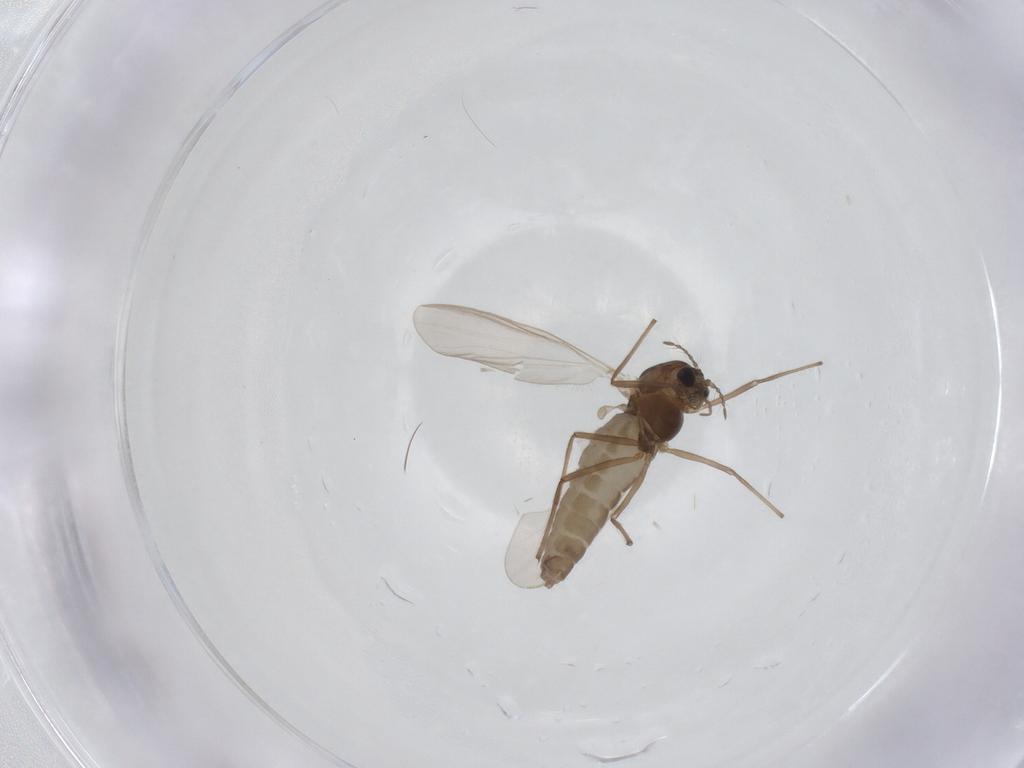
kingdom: Animalia
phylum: Arthropoda
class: Insecta
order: Diptera
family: Chironomidae
